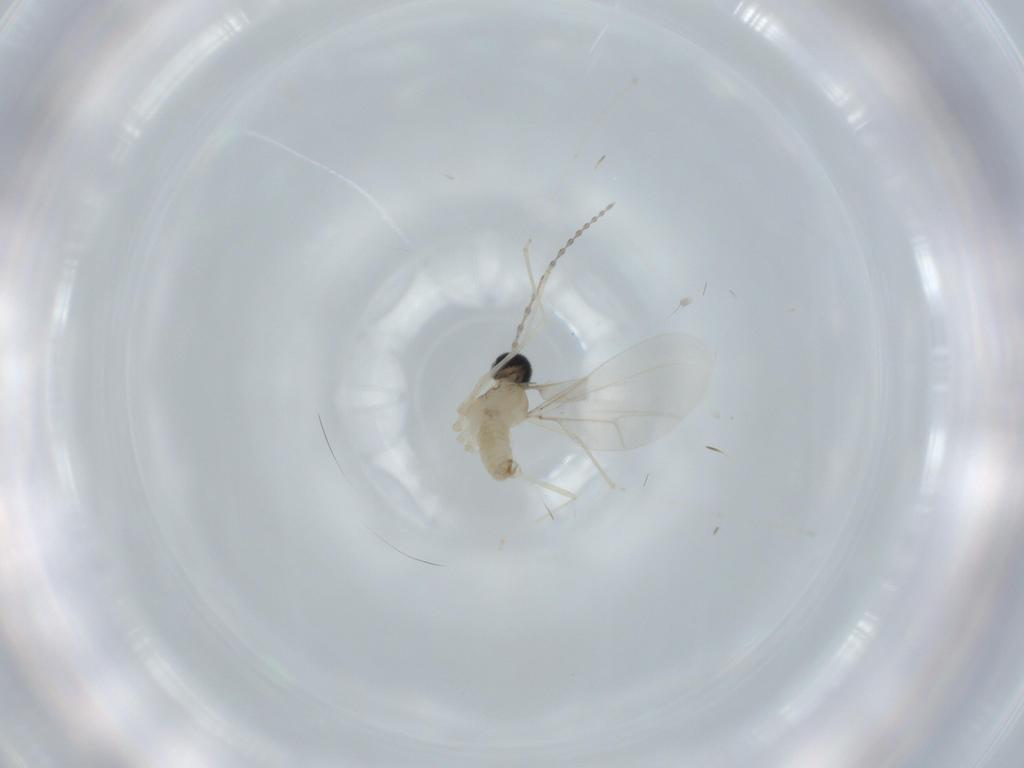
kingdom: Animalia
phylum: Arthropoda
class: Insecta
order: Diptera
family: Cecidomyiidae
